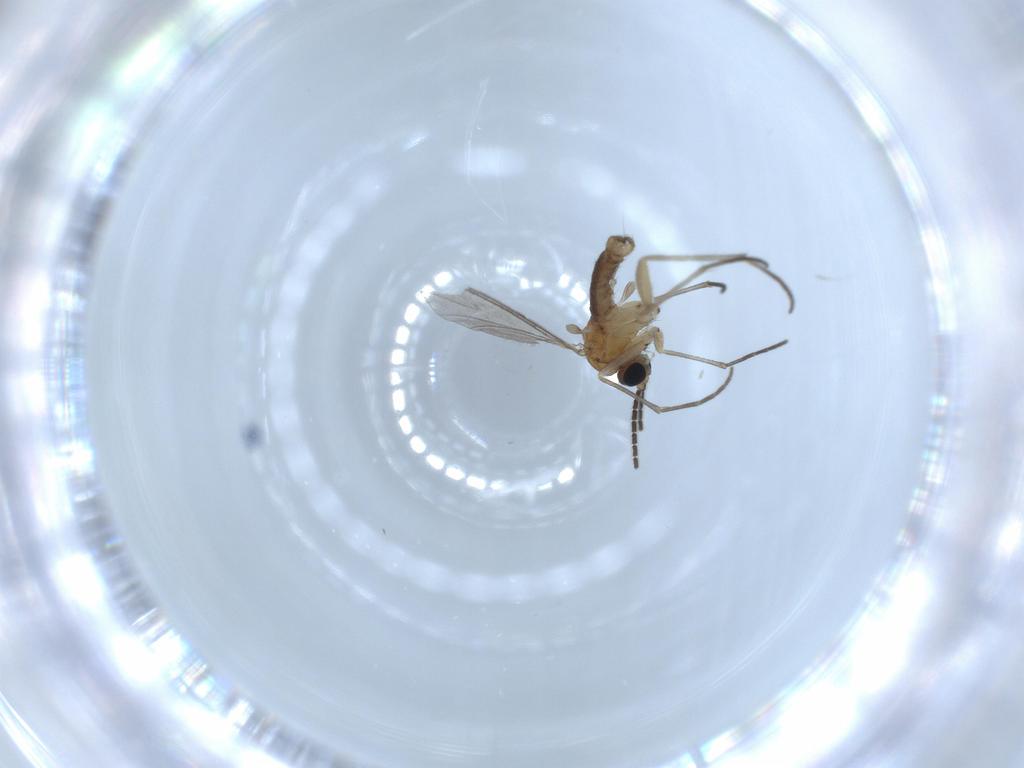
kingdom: Animalia
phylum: Arthropoda
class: Insecta
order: Diptera
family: Sciaridae
